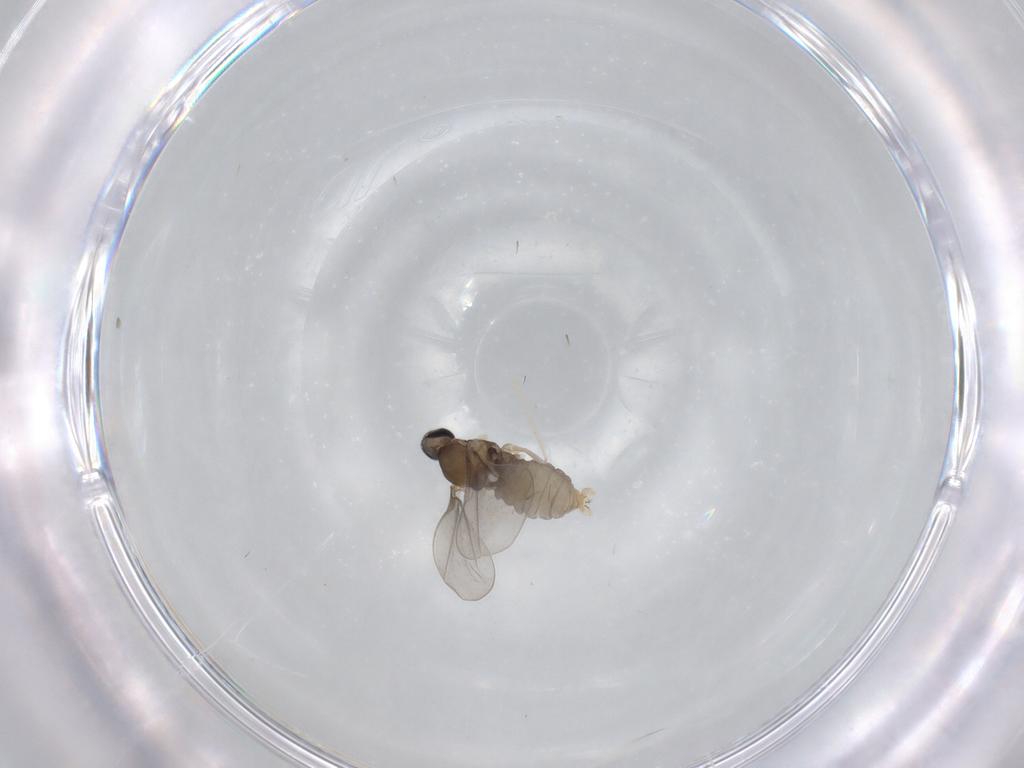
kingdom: Animalia
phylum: Arthropoda
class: Insecta
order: Diptera
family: Cecidomyiidae
